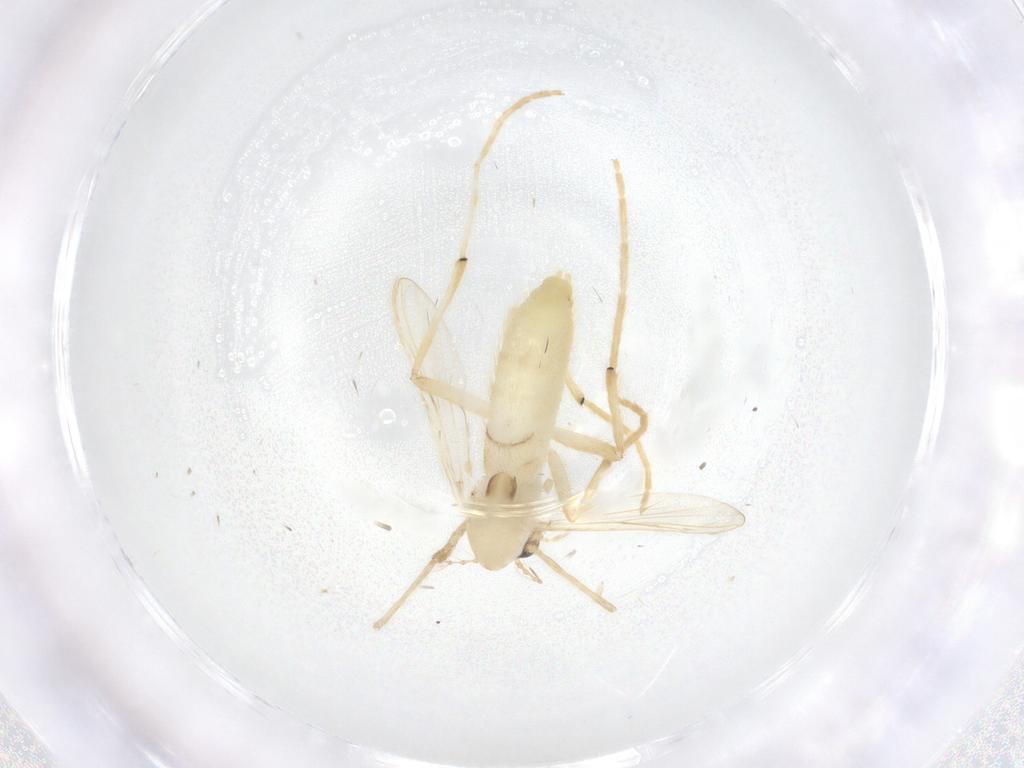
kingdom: Animalia
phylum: Arthropoda
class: Insecta
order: Diptera
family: Chironomidae
